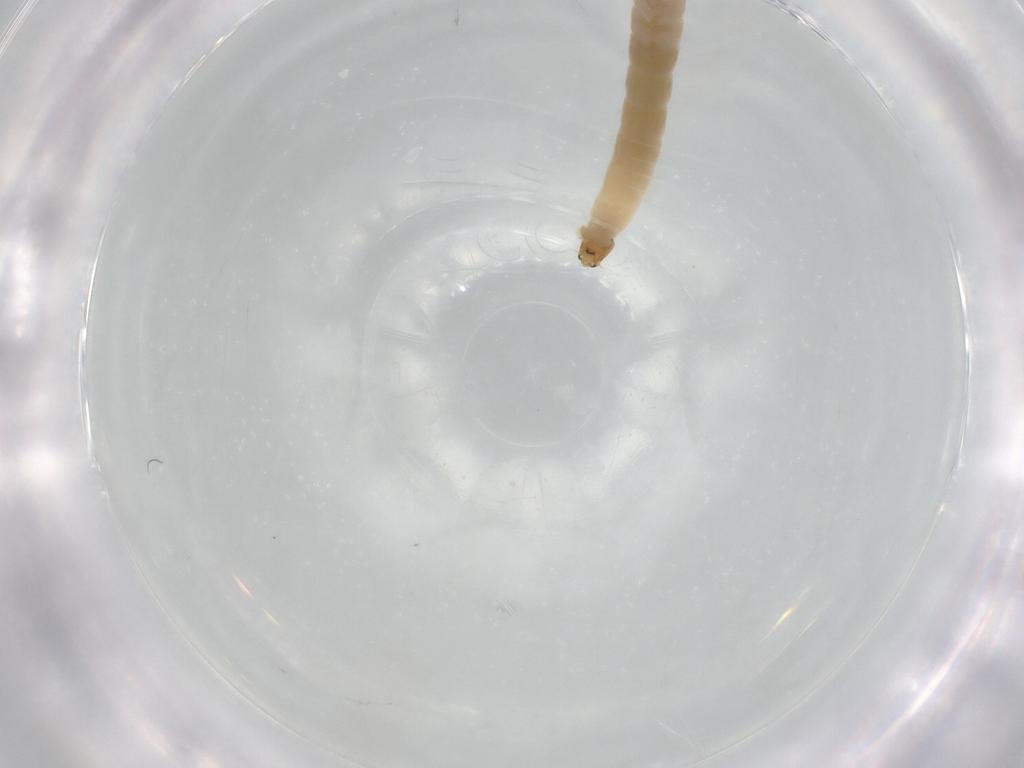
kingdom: Animalia
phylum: Arthropoda
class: Insecta
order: Diptera
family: Chironomidae
